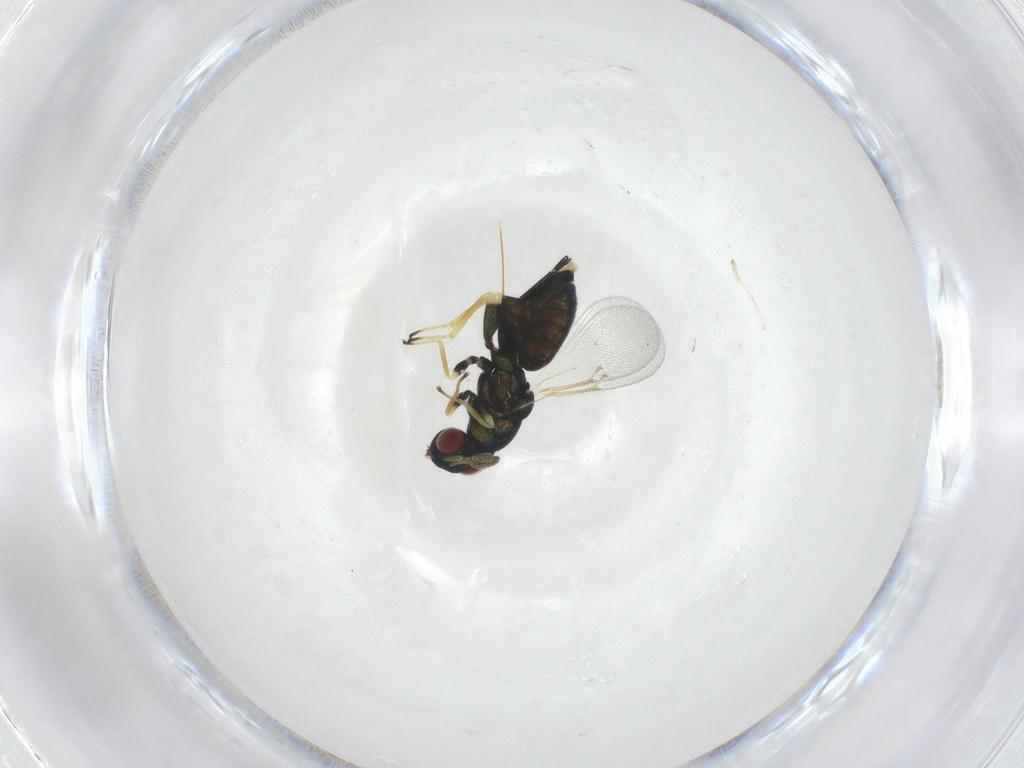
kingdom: Animalia
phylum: Arthropoda
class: Insecta
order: Hymenoptera
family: Eulophidae
